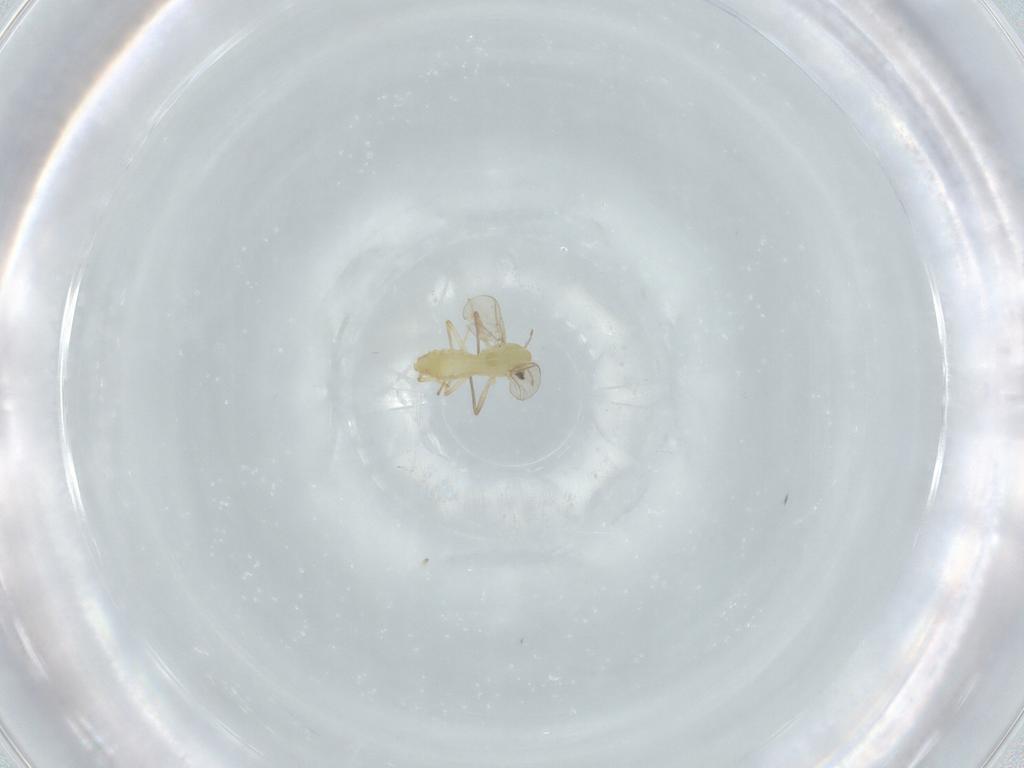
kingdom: Animalia
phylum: Arthropoda
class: Insecta
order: Diptera
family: Chironomidae
